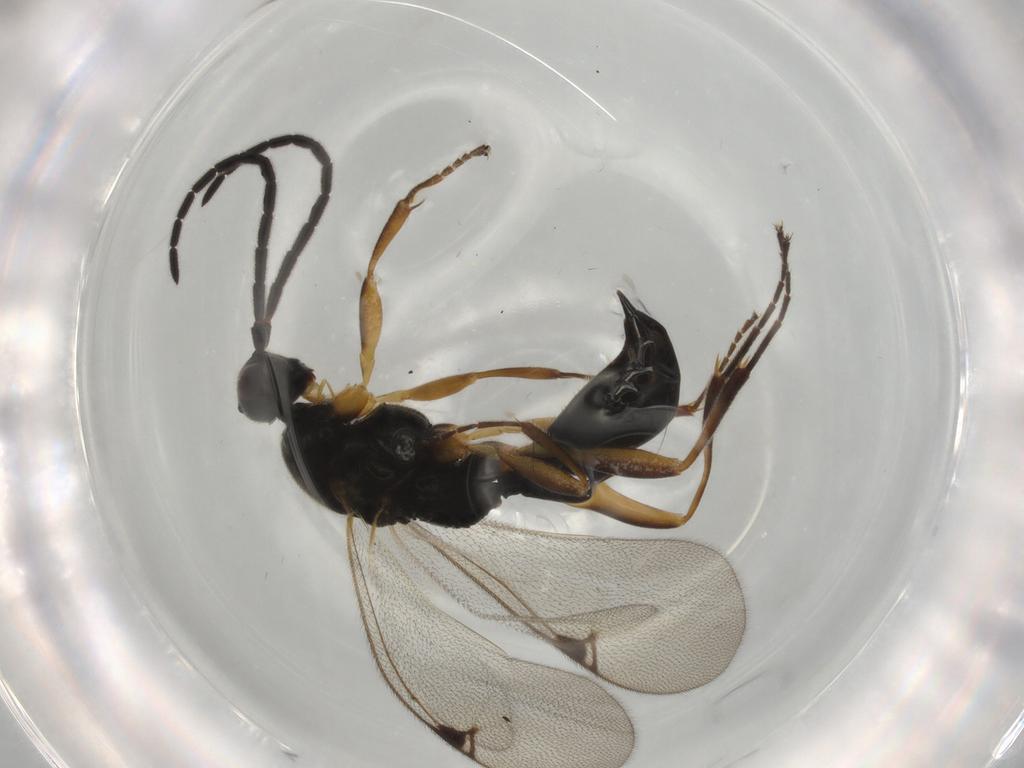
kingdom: Animalia
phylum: Arthropoda
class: Insecta
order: Hymenoptera
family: Proctotrupidae
